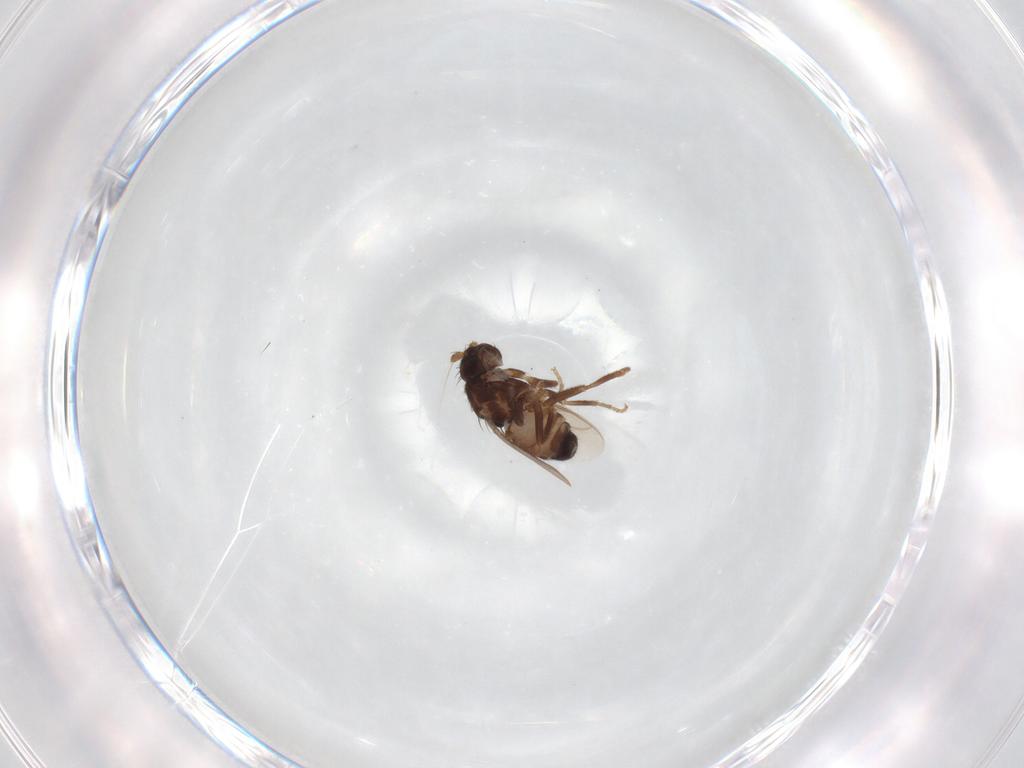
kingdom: Animalia
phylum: Arthropoda
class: Insecta
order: Diptera
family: Sphaeroceridae
